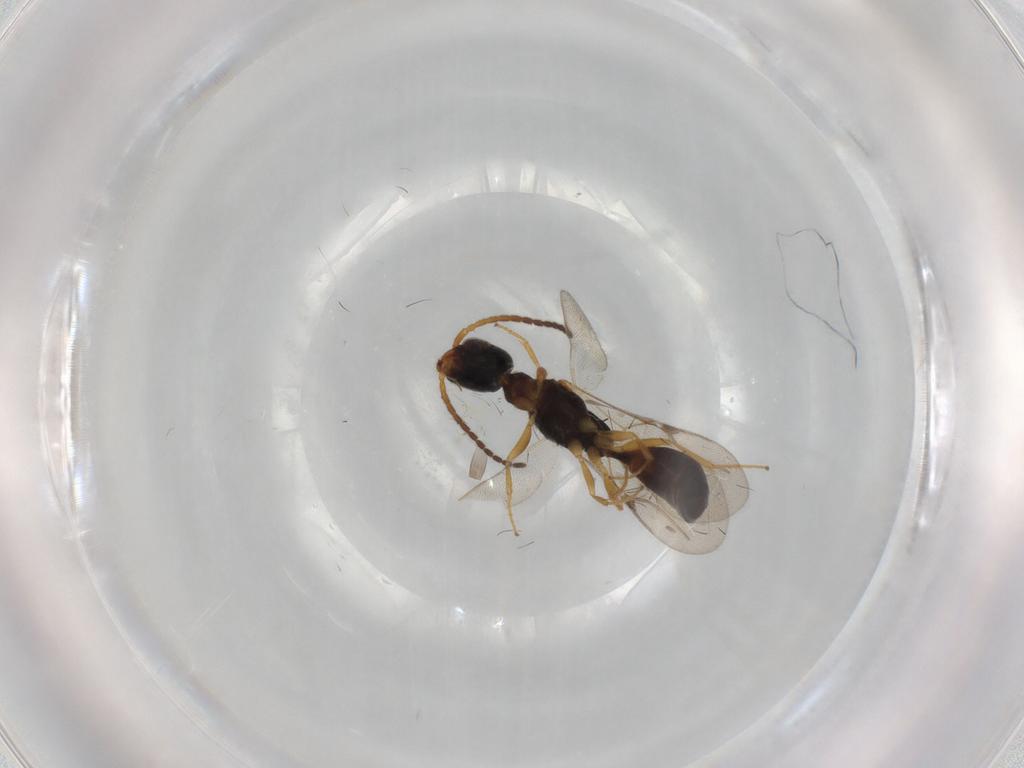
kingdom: Animalia
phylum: Arthropoda
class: Insecta
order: Hymenoptera
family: Bethylidae
